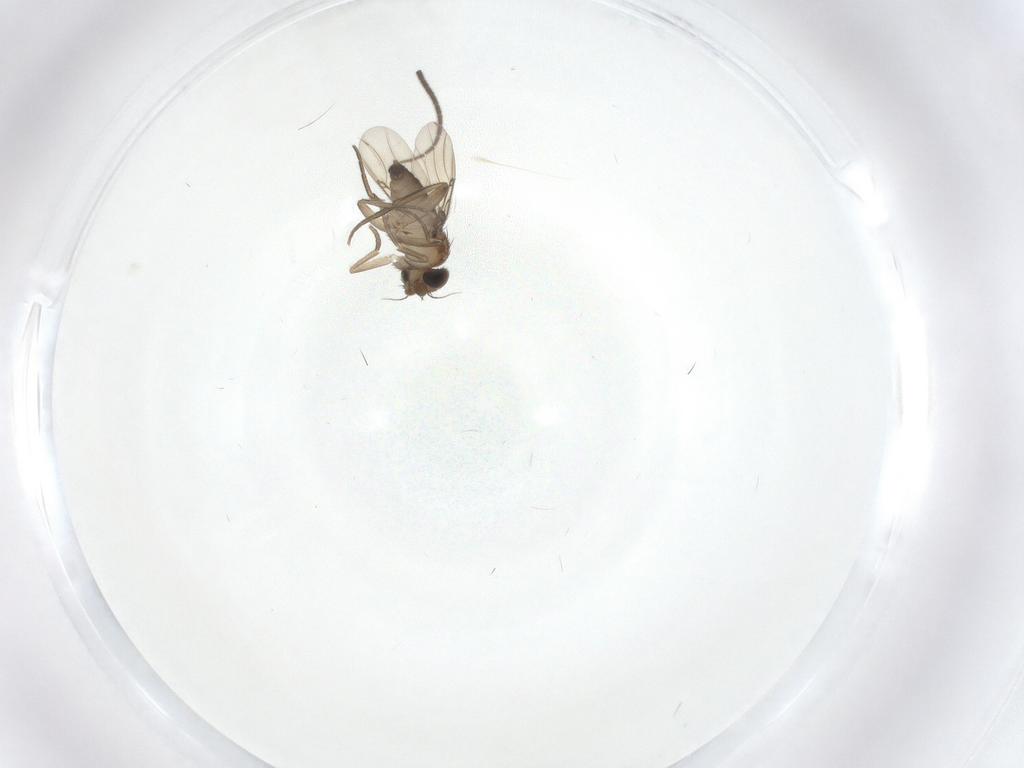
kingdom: Animalia
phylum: Arthropoda
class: Insecta
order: Diptera
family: Phoridae
